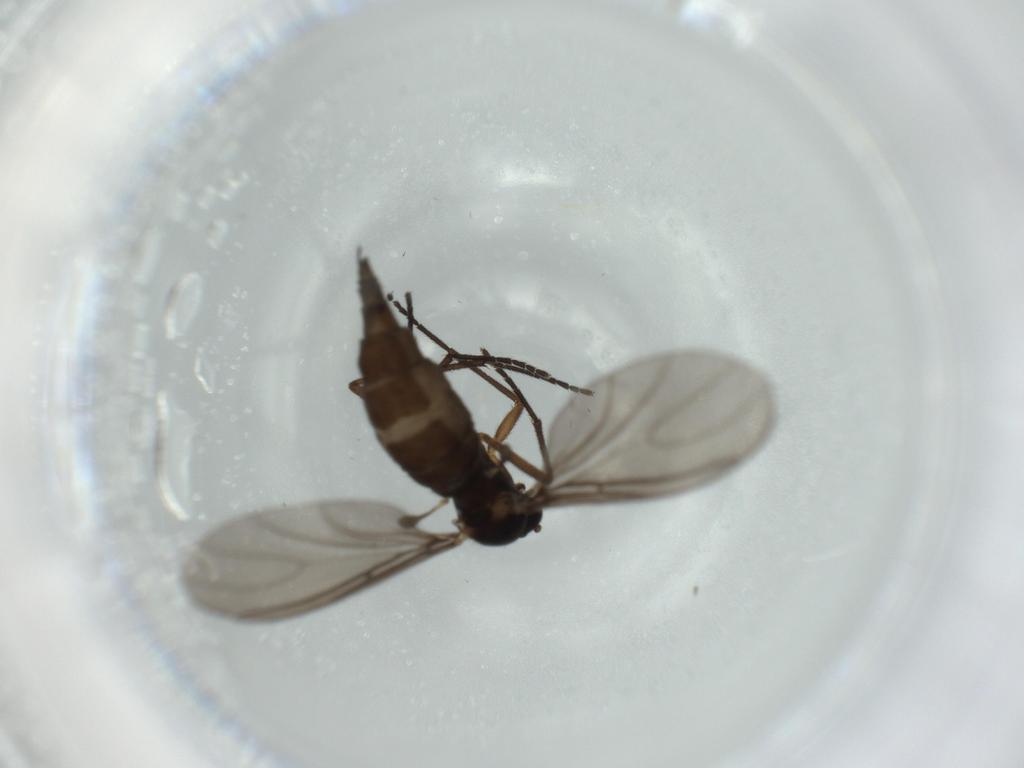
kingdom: Animalia
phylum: Arthropoda
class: Insecta
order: Diptera
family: Sciaridae
